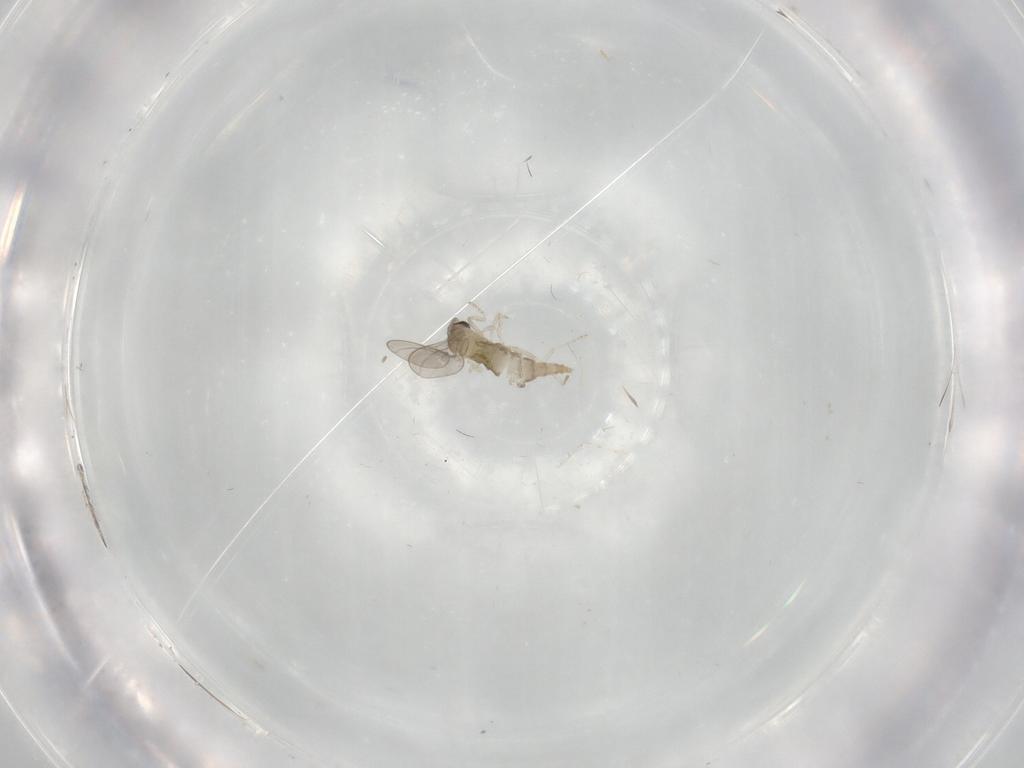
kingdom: Animalia
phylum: Arthropoda
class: Insecta
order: Diptera
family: Cecidomyiidae
